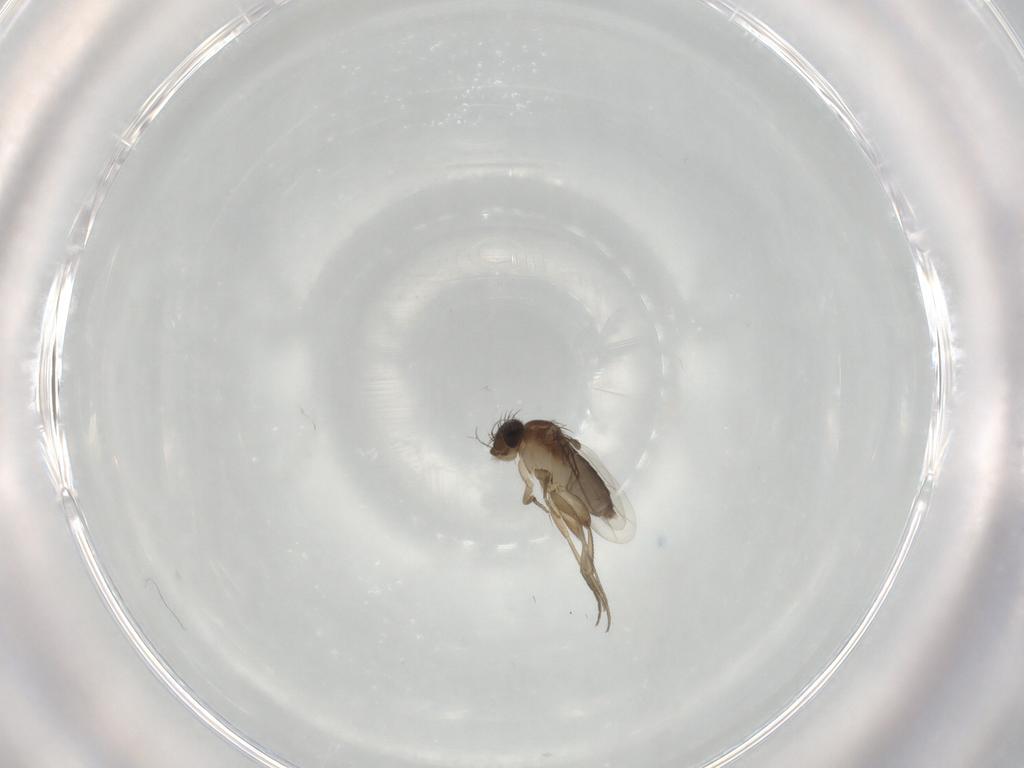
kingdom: Animalia
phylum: Arthropoda
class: Insecta
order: Diptera
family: Phoridae
